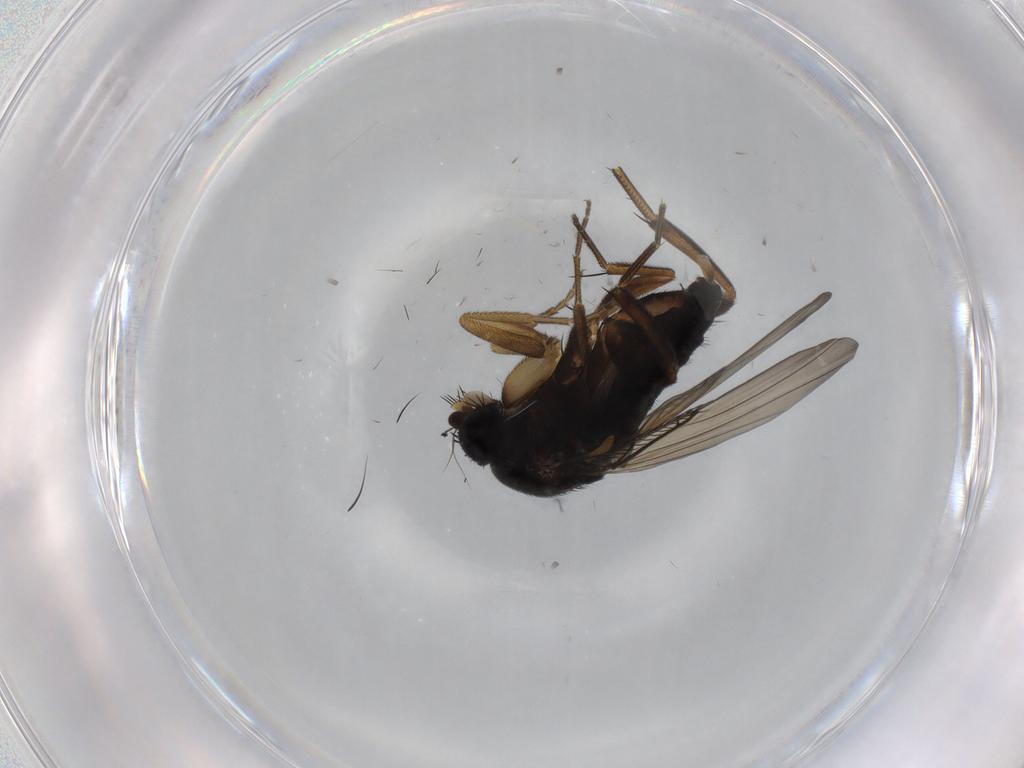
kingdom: Animalia
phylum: Arthropoda
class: Insecta
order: Diptera
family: Phoridae
